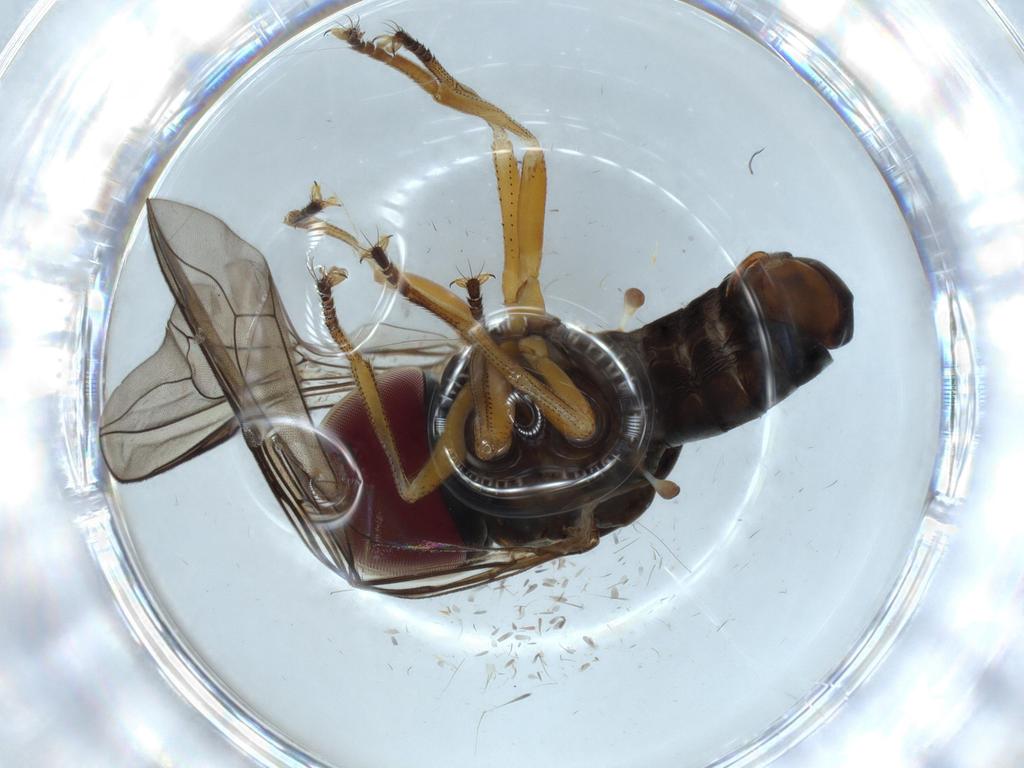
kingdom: Animalia
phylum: Arthropoda
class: Insecta
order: Diptera
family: Pipunculidae
